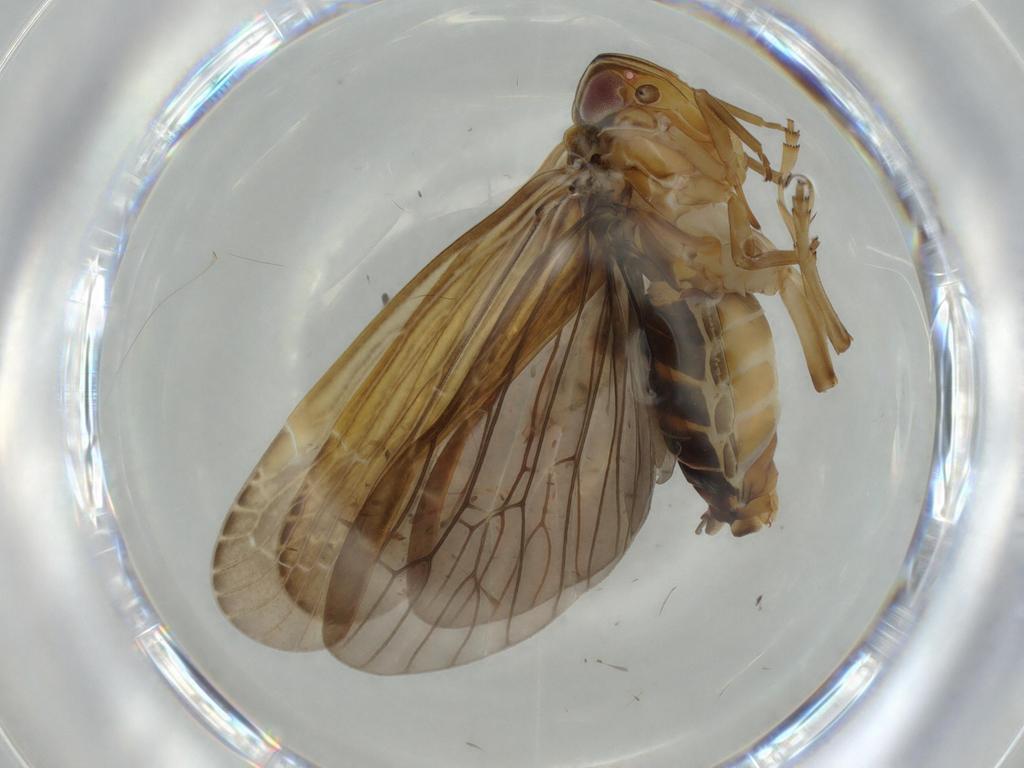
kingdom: Animalia
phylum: Arthropoda
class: Insecta
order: Hemiptera
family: Achilidae
